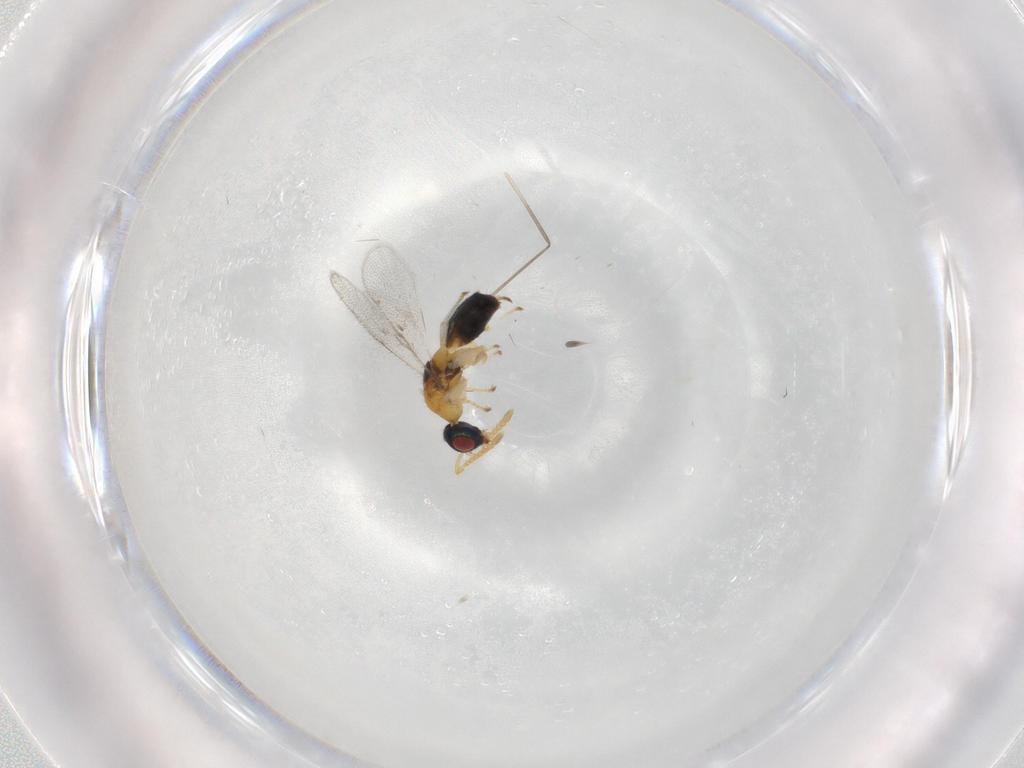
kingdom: Animalia
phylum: Arthropoda
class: Insecta
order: Hymenoptera
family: Torymidae
